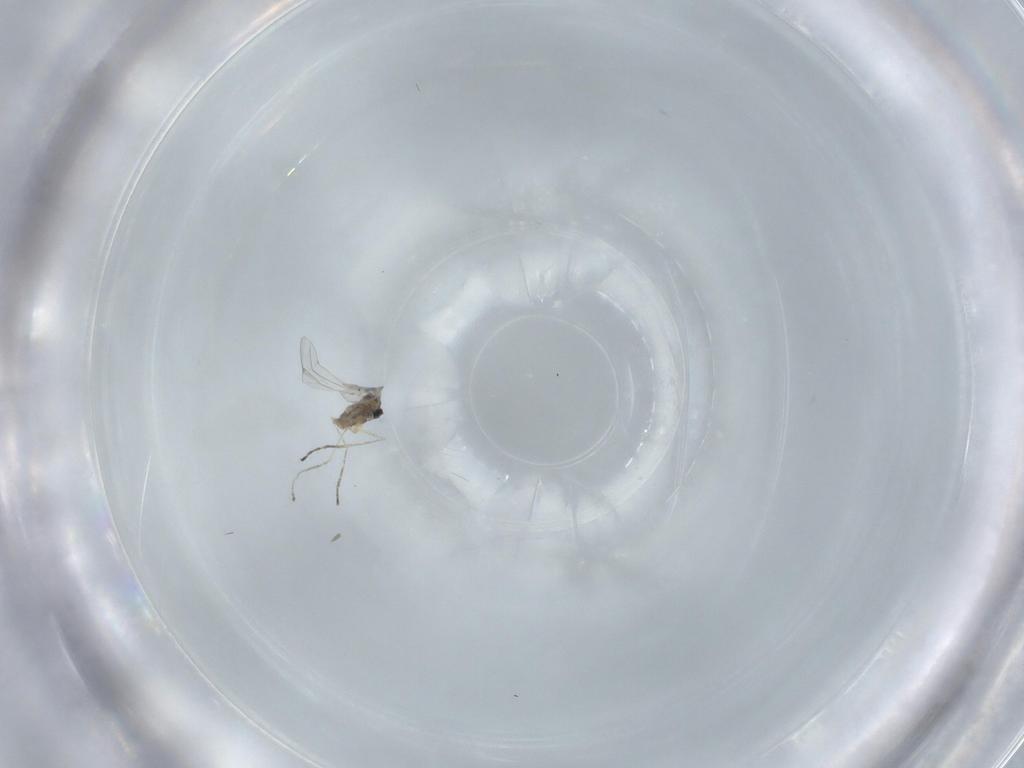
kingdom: Animalia
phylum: Arthropoda
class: Insecta
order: Diptera
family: Cecidomyiidae
